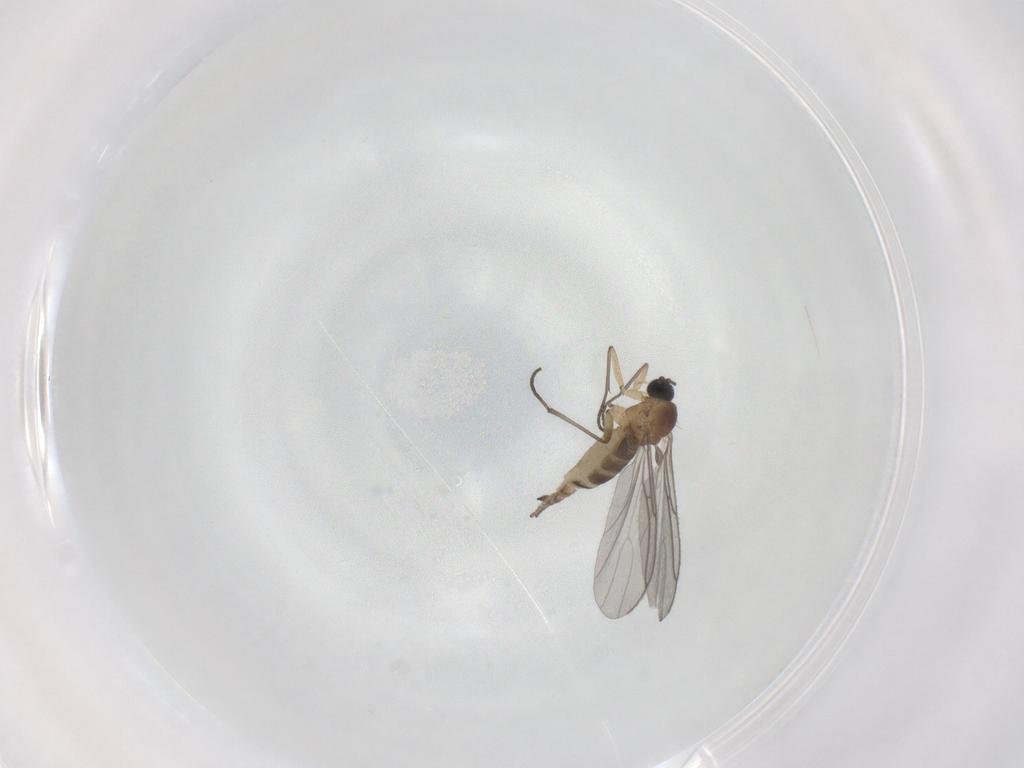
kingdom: Animalia
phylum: Arthropoda
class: Insecta
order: Diptera
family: Sciaridae
